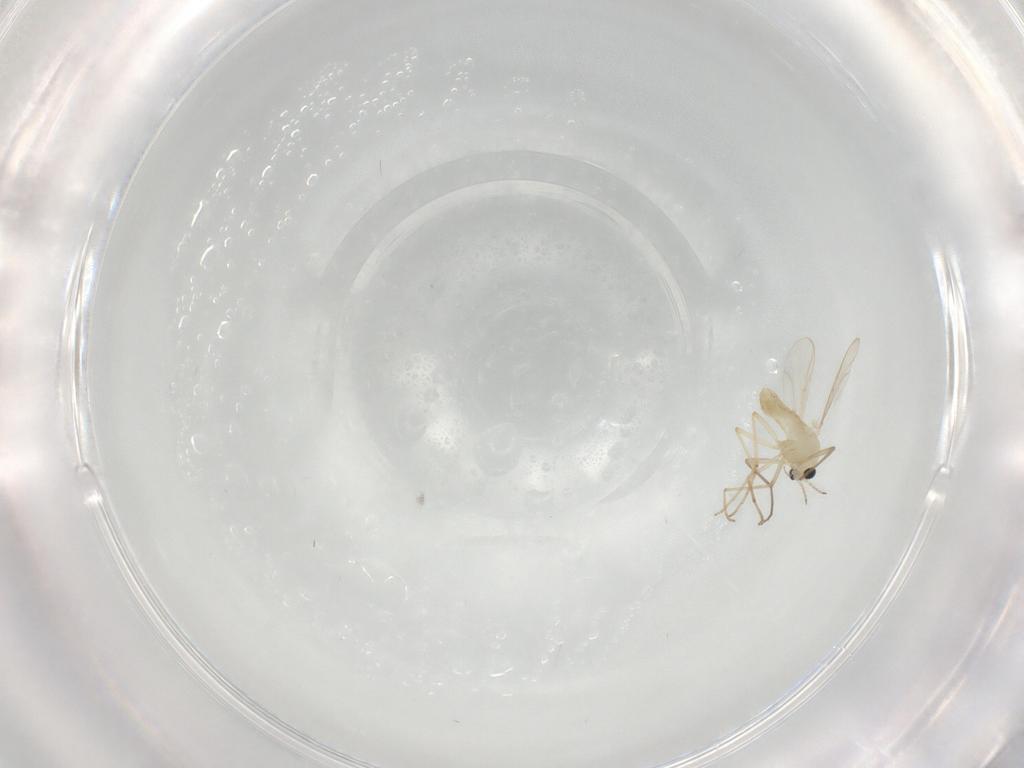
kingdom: Animalia
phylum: Arthropoda
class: Insecta
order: Diptera
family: Chironomidae
